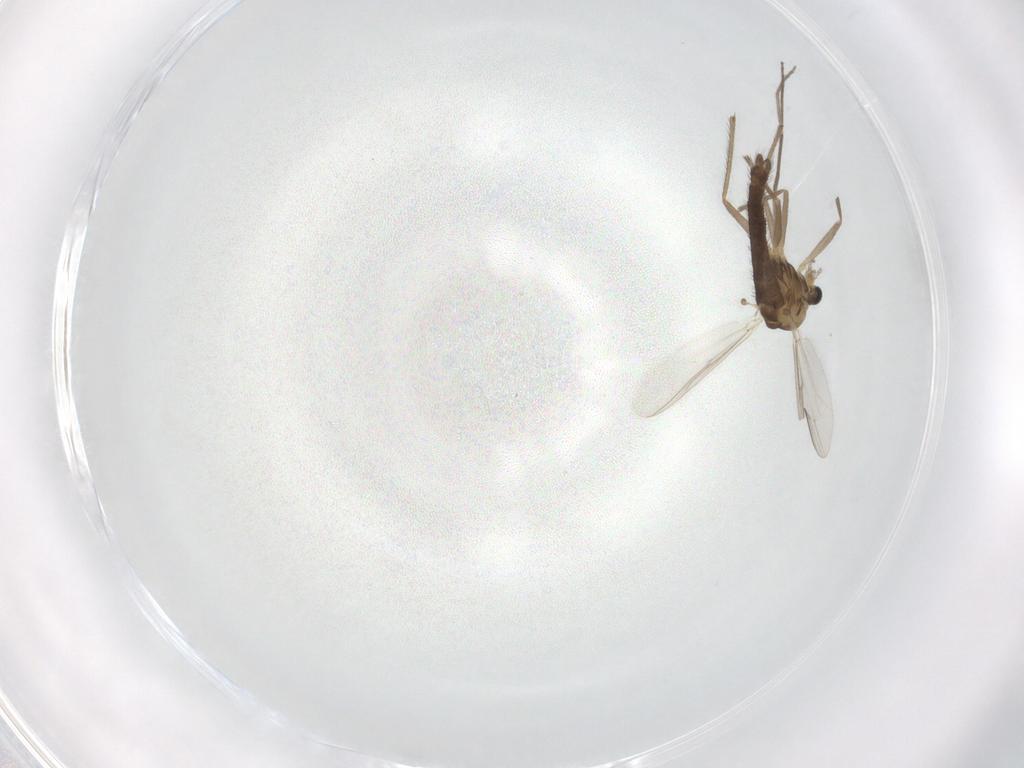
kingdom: Animalia
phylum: Arthropoda
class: Insecta
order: Diptera
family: Chironomidae
